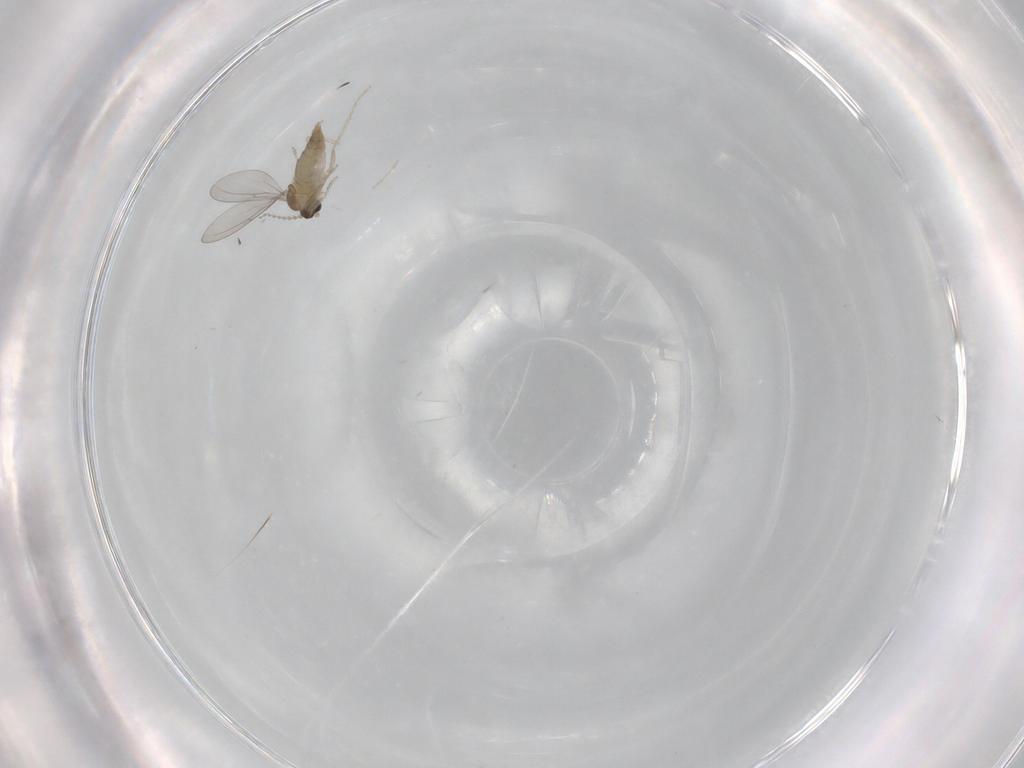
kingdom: Animalia
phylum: Arthropoda
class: Insecta
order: Diptera
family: Cecidomyiidae
